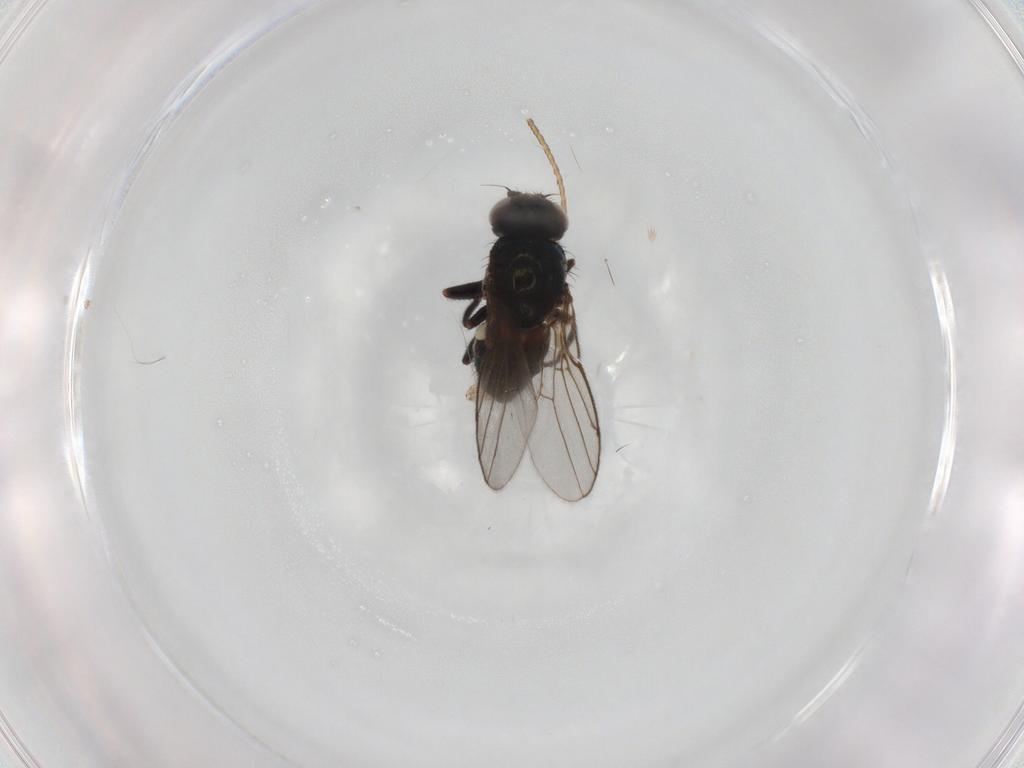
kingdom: Animalia
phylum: Arthropoda
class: Insecta
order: Diptera
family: Chloropidae
